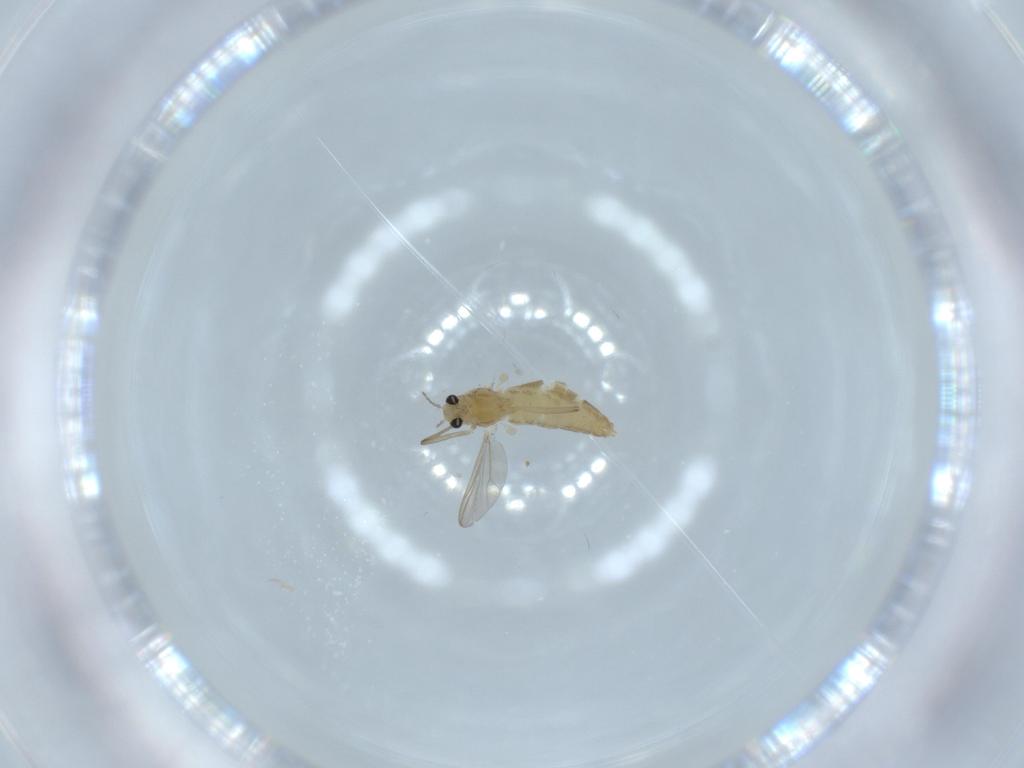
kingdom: Animalia
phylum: Arthropoda
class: Insecta
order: Diptera
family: Chironomidae
